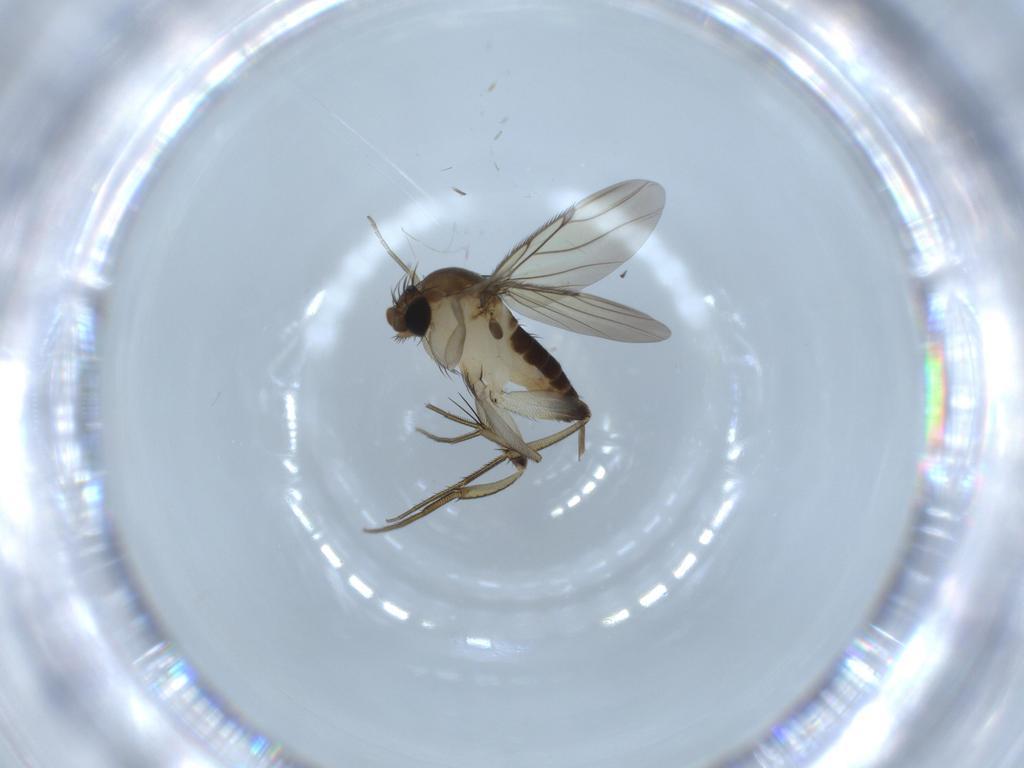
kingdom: Animalia
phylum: Arthropoda
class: Insecta
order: Diptera
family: Phoridae
